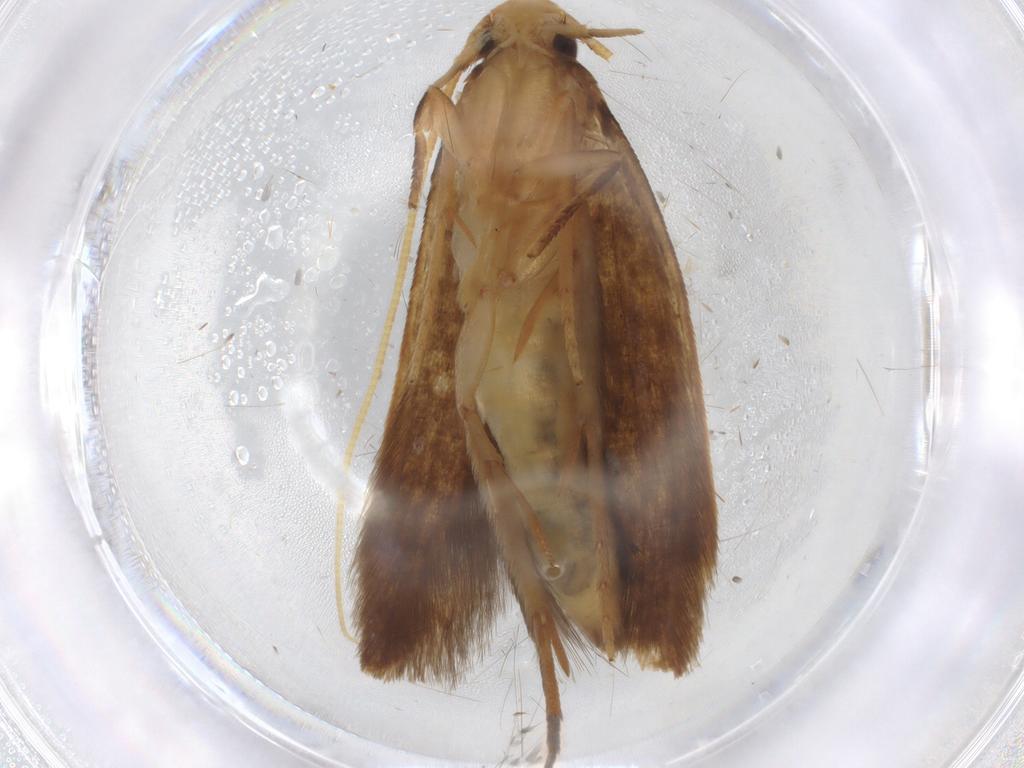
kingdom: Animalia
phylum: Arthropoda
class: Insecta
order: Lepidoptera
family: Tineidae
